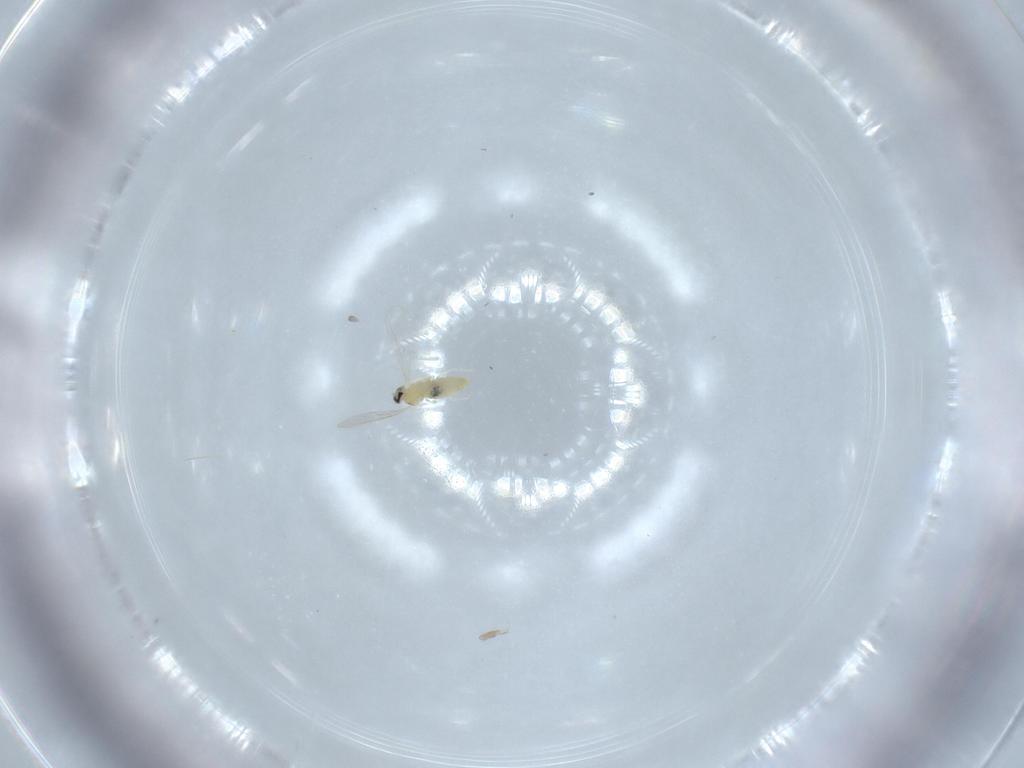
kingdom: Animalia
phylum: Arthropoda
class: Insecta
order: Diptera
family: Cecidomyiidae
